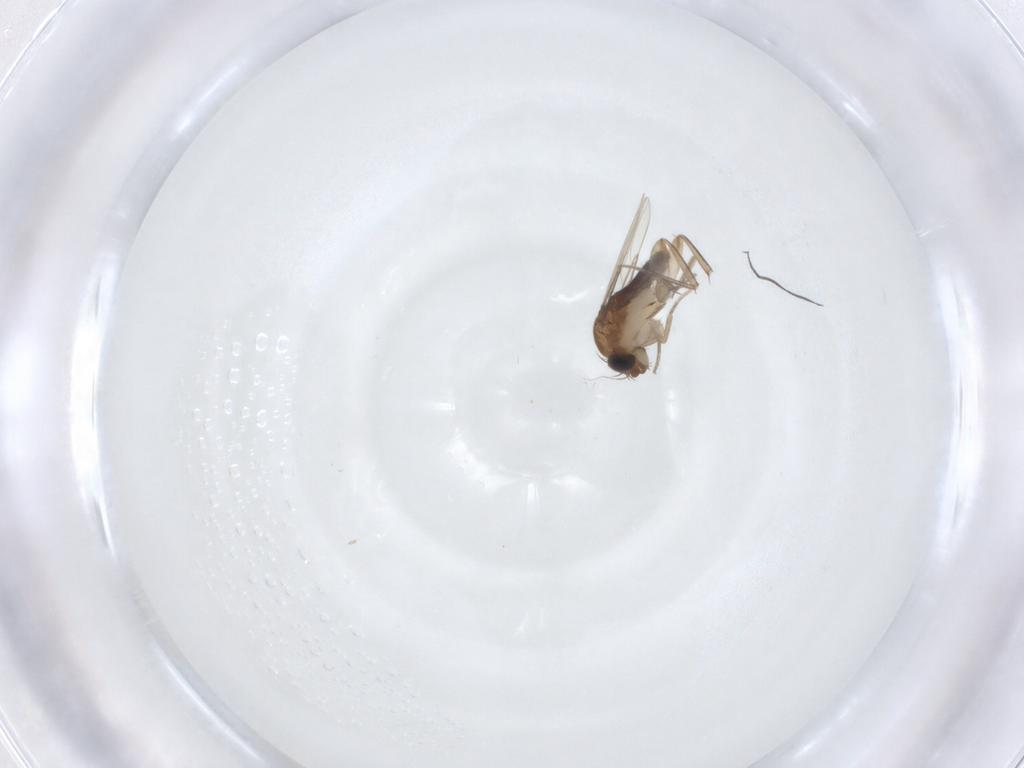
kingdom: Animalia
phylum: Arthropoda
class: Insecta
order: Diptera
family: Phoridae
